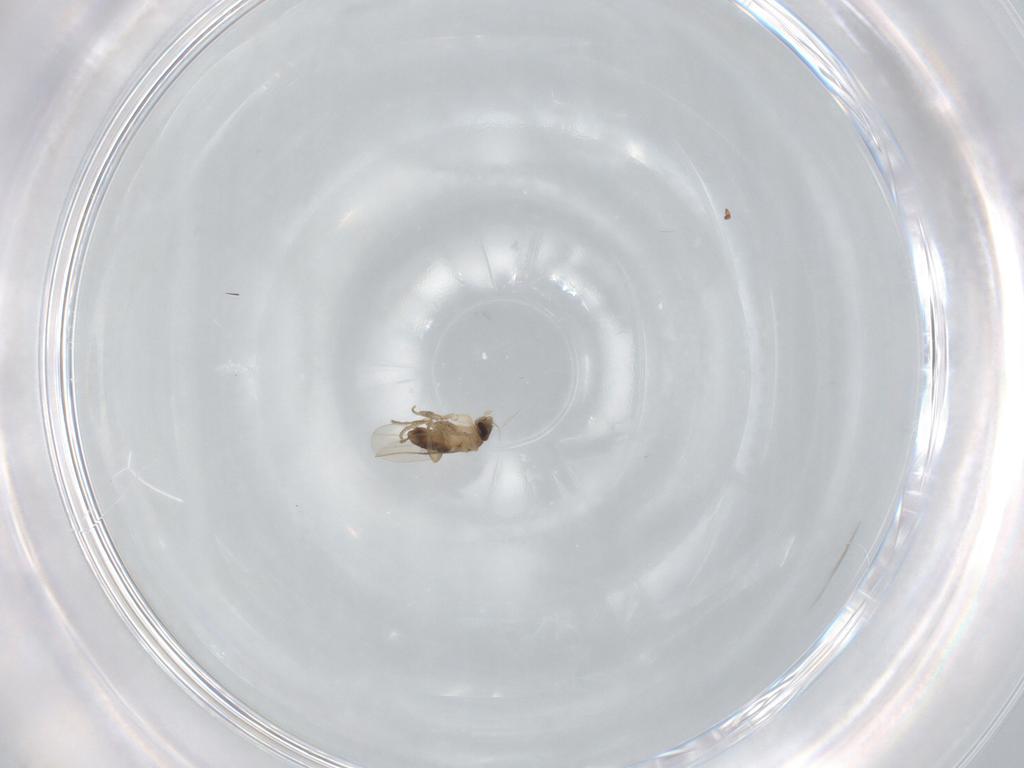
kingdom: Animalia
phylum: Arthropoda
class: Insecta
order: Diptera
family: Phoridae
